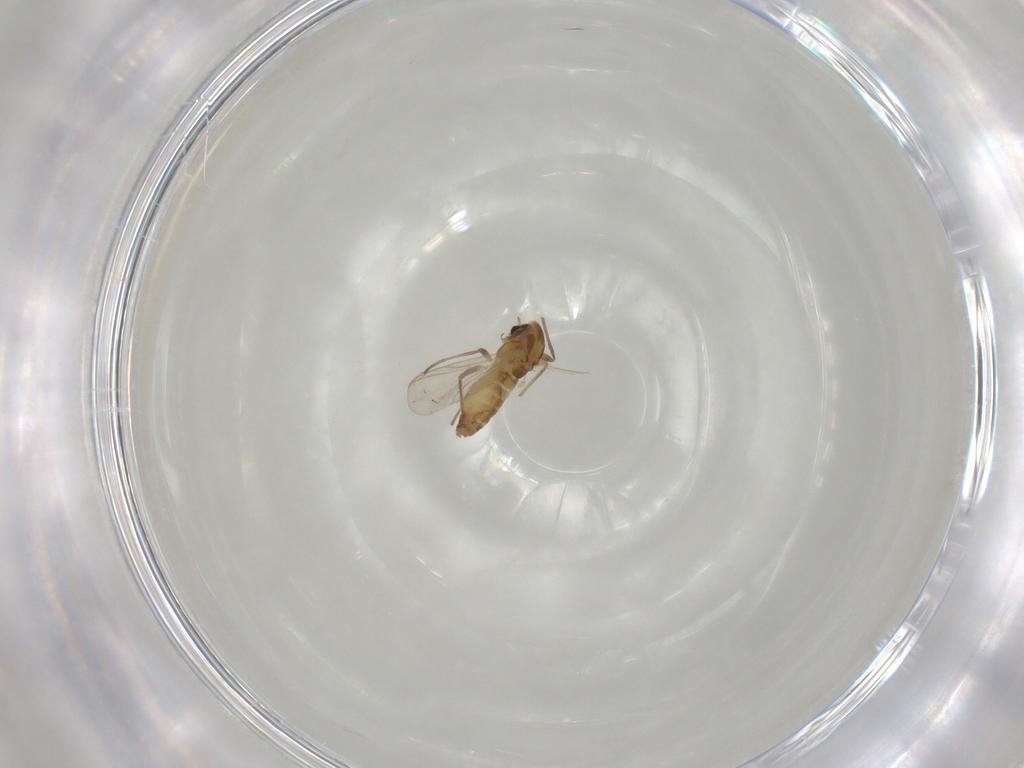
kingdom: Animalia
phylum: Arthropoda
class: Insecta
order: Diptera
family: Chironomidae
